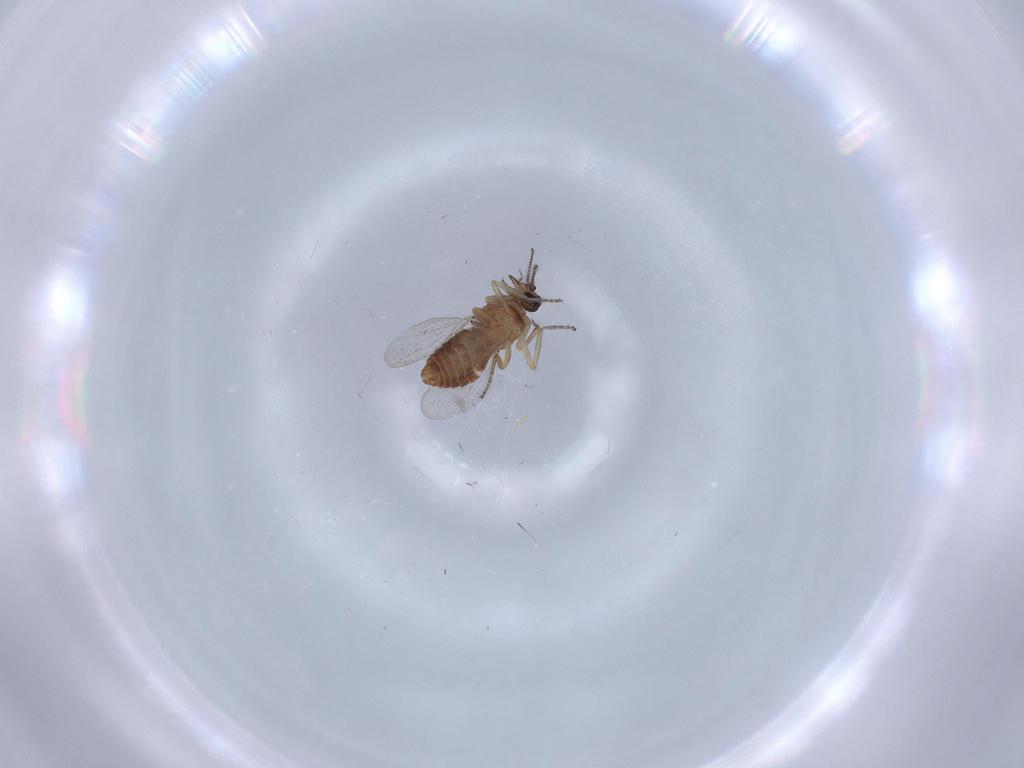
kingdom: Animalia
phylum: Arthropoda
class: Insecta
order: Diptera
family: Ceratopogonidae
